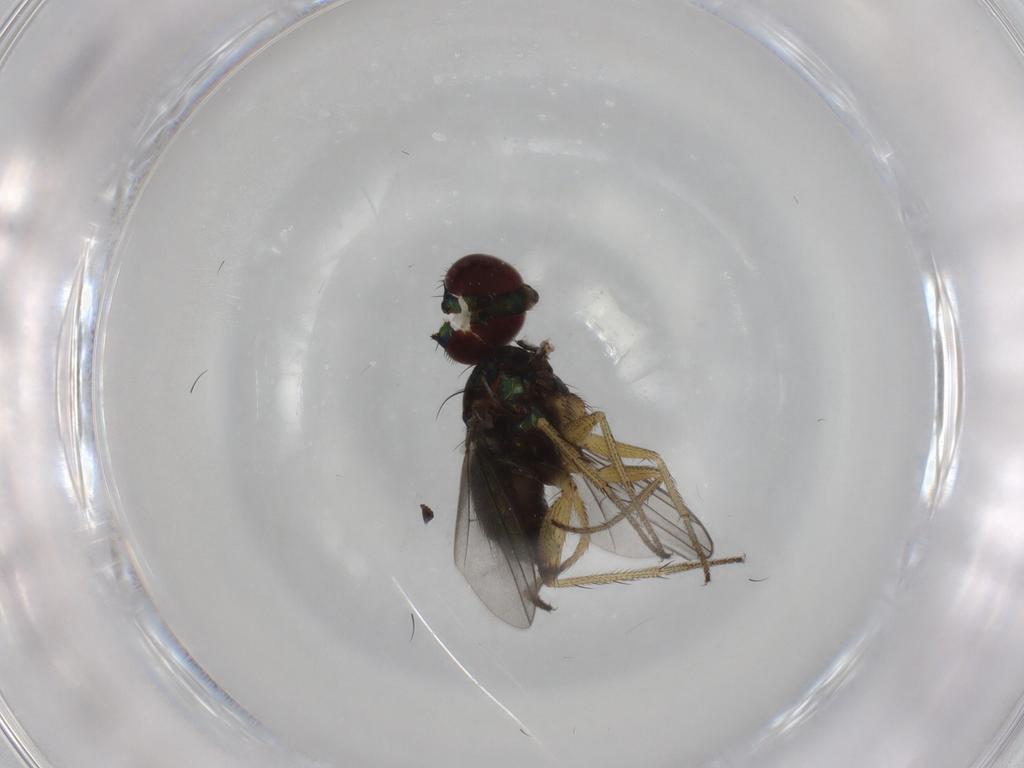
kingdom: Animalia
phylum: Arthropoda
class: Insecta
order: Diptera
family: Dolichopodidae
